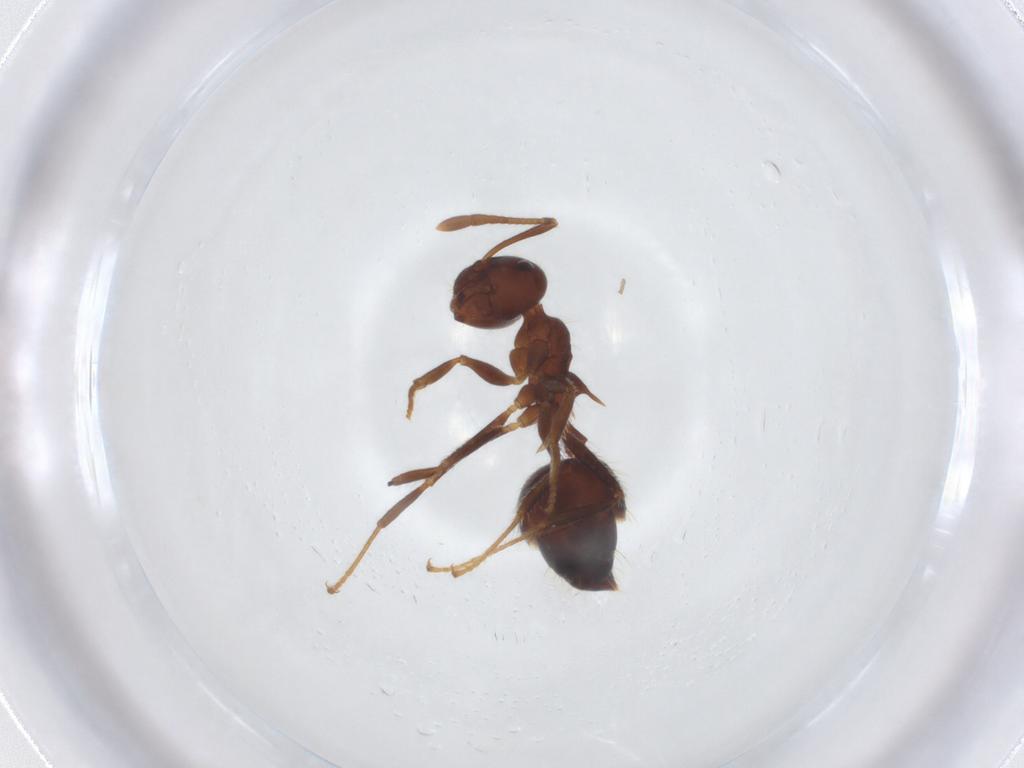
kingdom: Animalia
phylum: Arthropoda
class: Insecta
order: Hymenoptera
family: Formicidae
